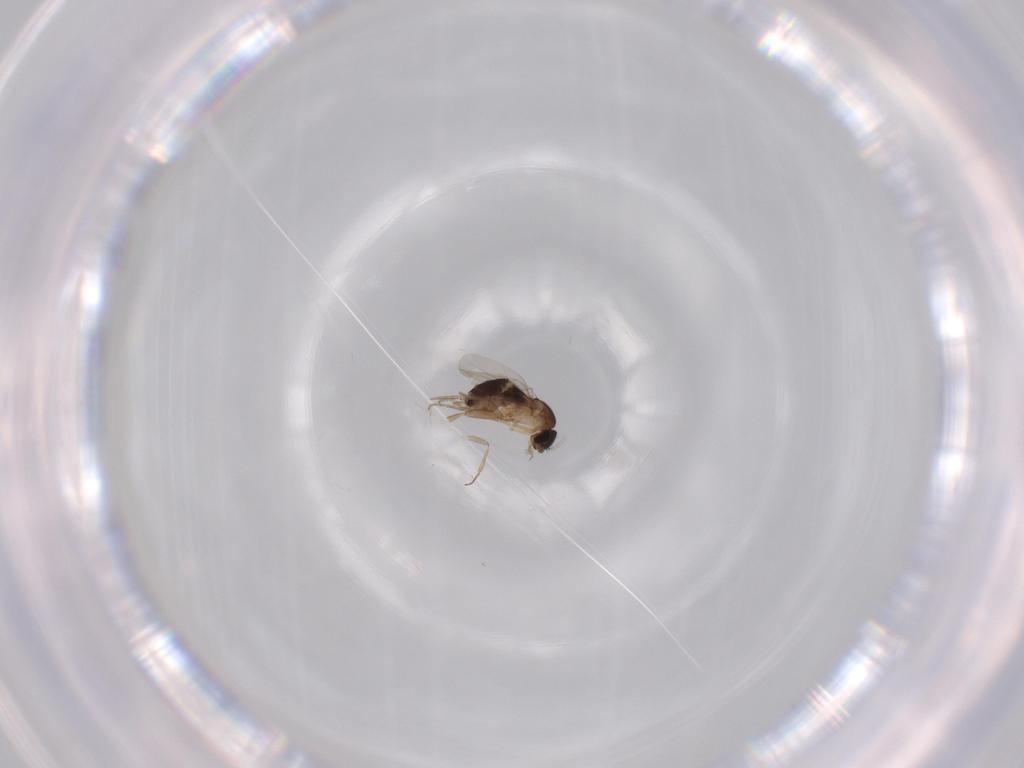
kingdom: Animalia
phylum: Arthropoda
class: Insecta
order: Diptera
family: Phoridae
